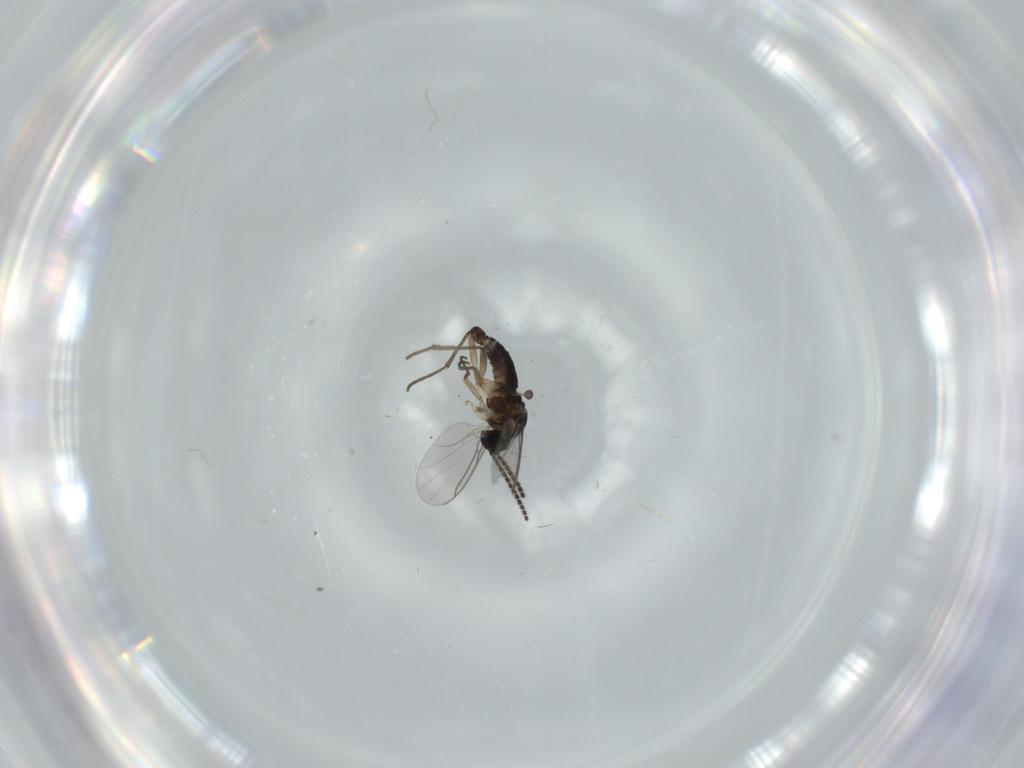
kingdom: Animalia
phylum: Arthropoda
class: Insecta
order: Diptera
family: Sciaridae
